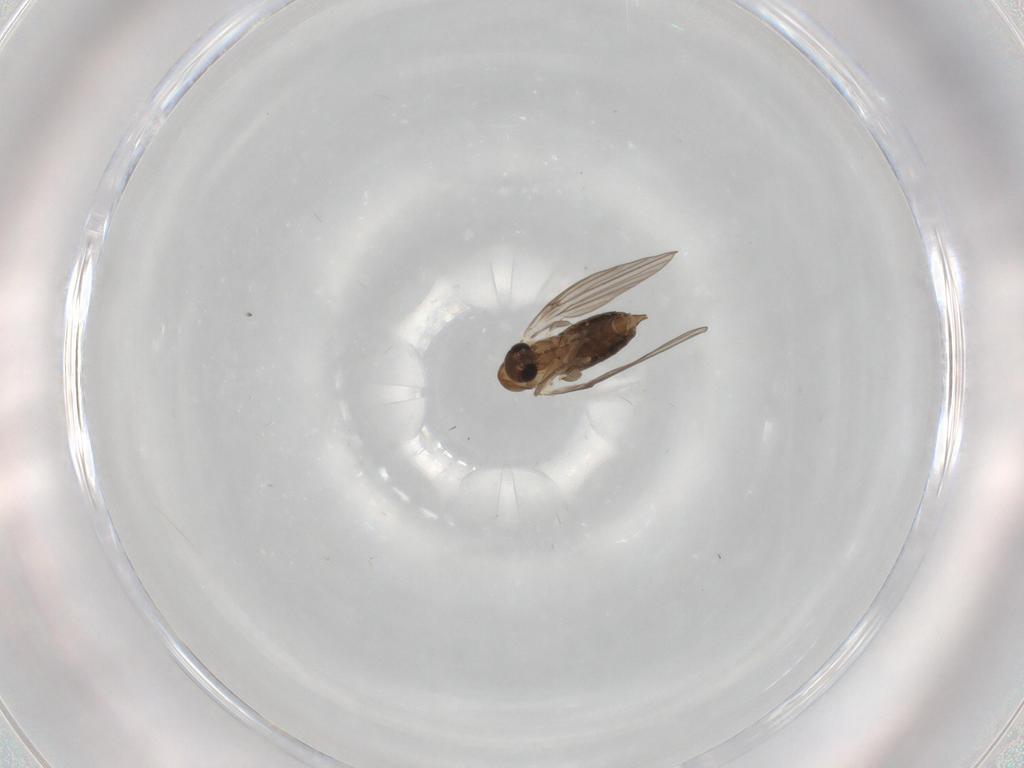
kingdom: Animalia
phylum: Arthropoda
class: Insecta
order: Diptera
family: Psychodidae
